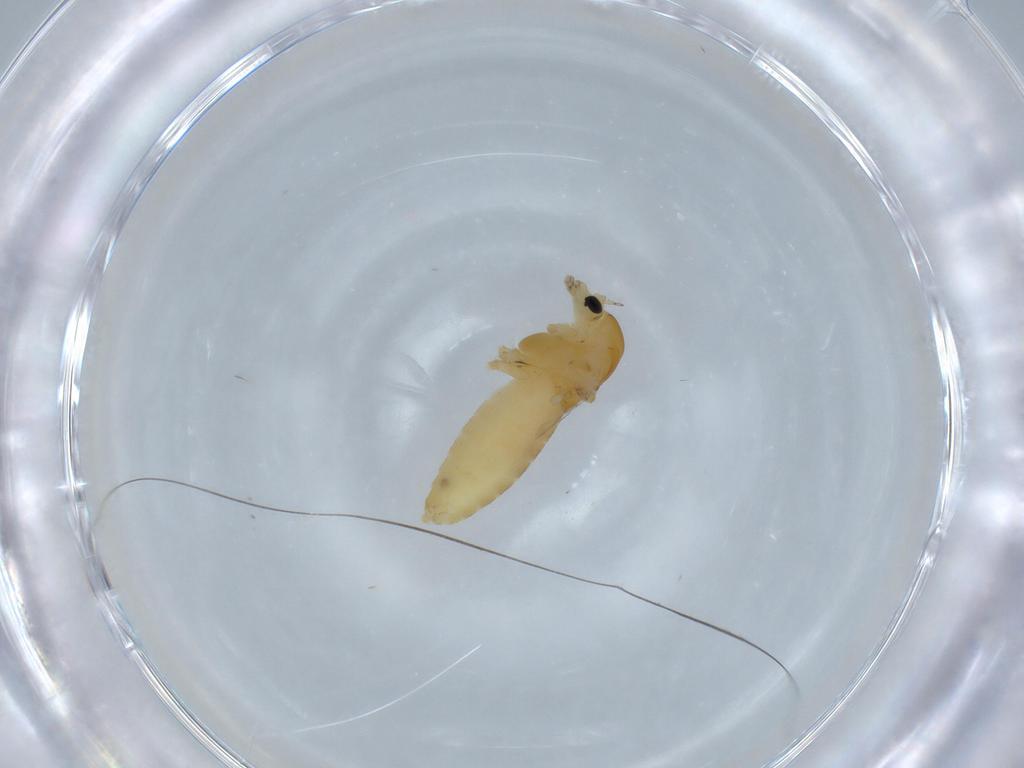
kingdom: Animalia
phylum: Arthropoda
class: Insecta
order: Diptera
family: Chironomidae
